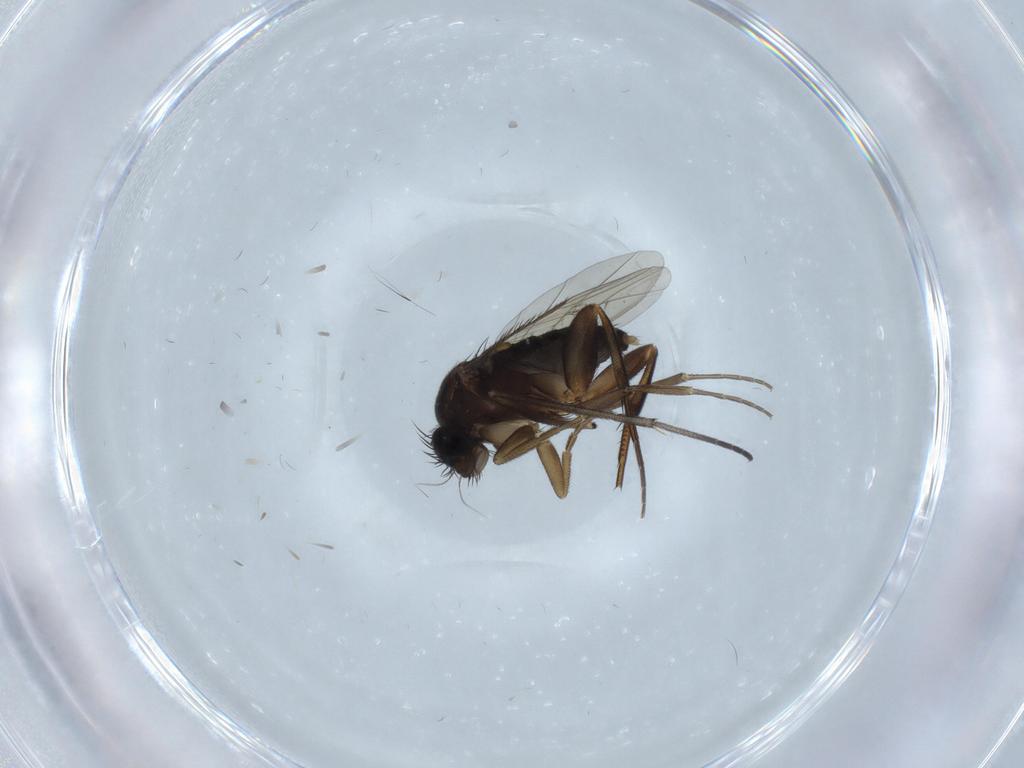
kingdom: Animalia
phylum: Arthropoda
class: Insecta
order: Diptera
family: Phoridae
